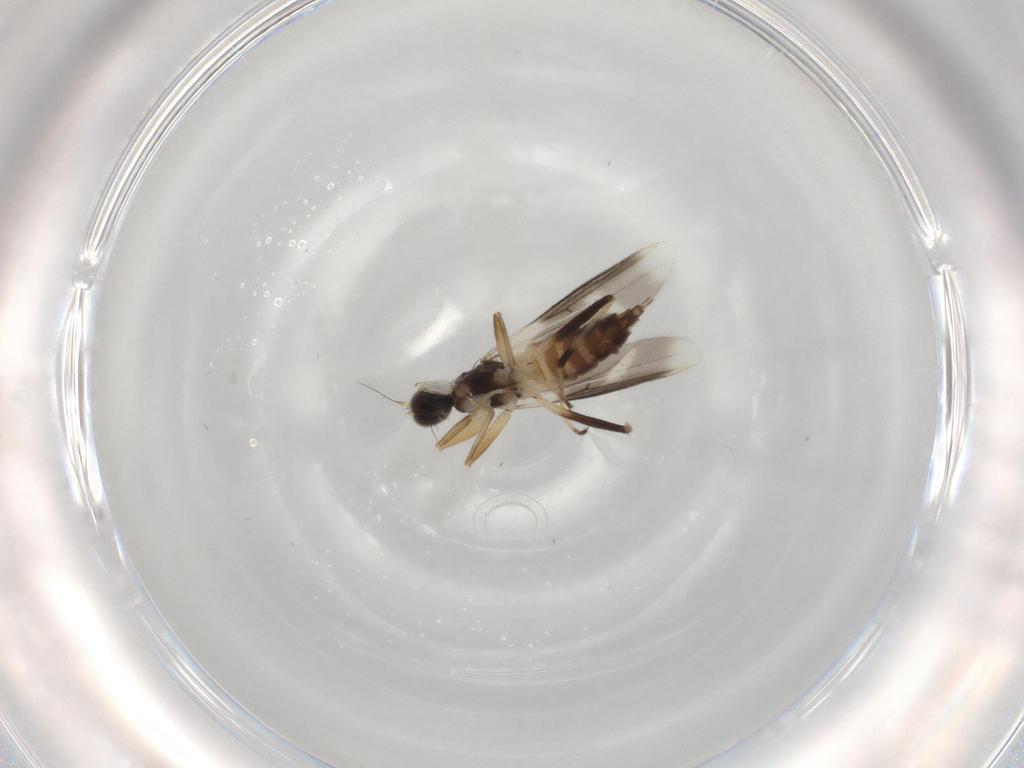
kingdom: Animalia
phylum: Arthropoda
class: Insecta
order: Diptera
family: Hybotidae
